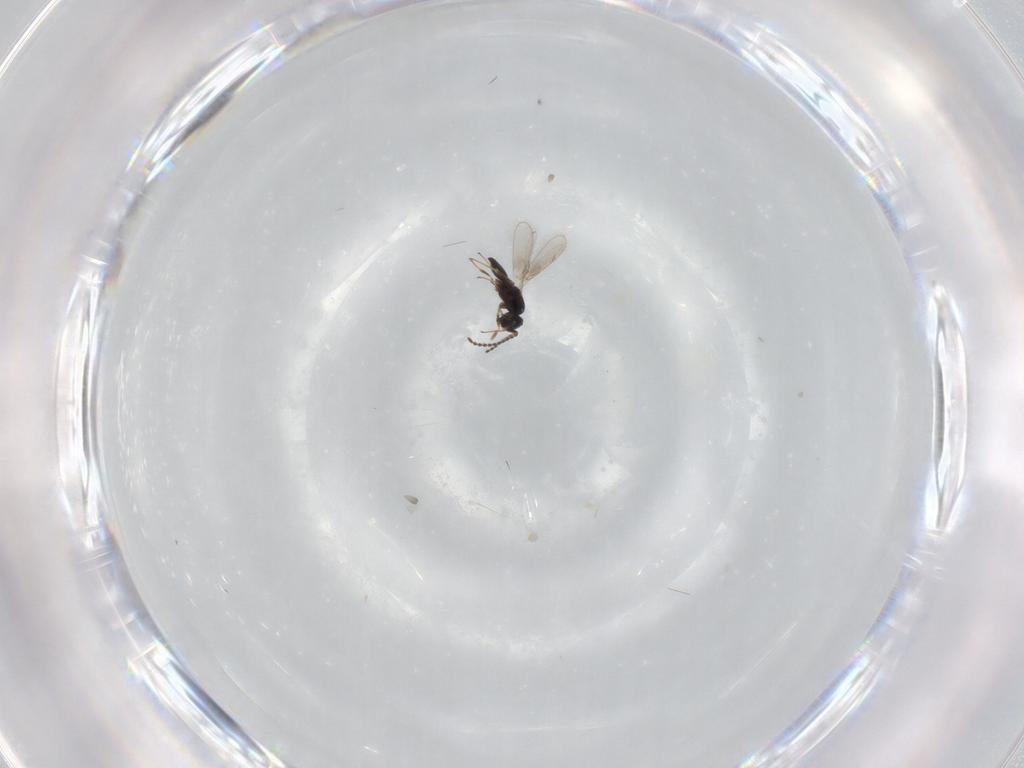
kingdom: Animalia
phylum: Arthropoda
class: Insecta
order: Hymenoptera
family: Scelionidae
